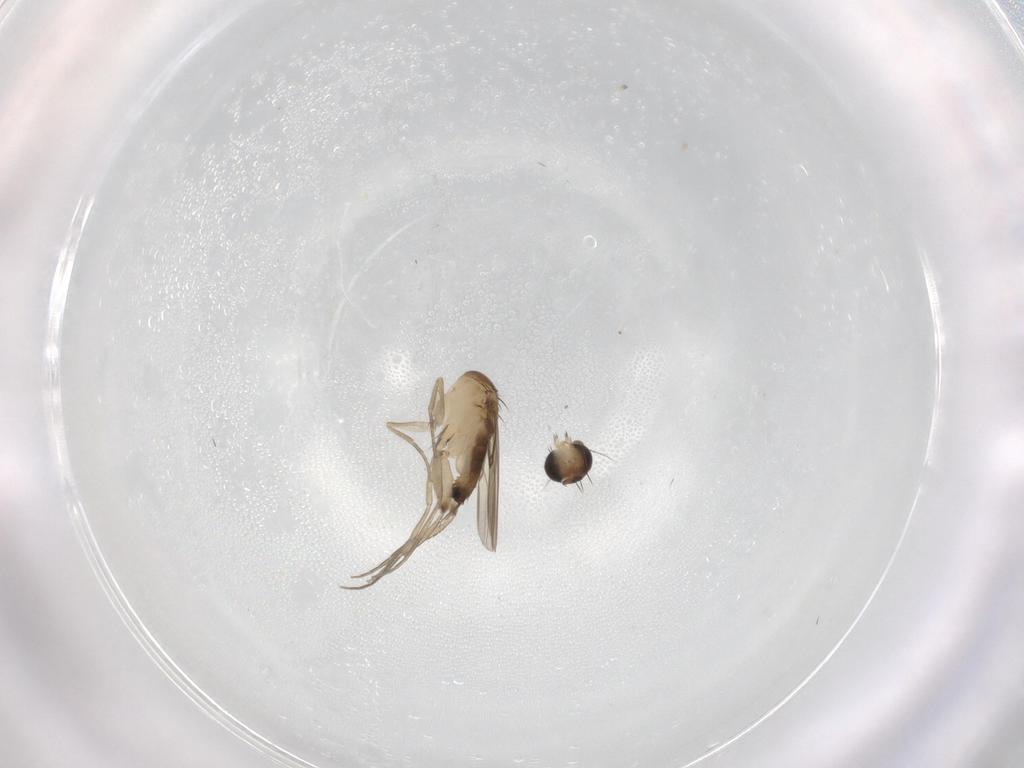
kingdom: Animalia
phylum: Arthropoda
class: Insecta
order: Diptera
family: Phoridae
